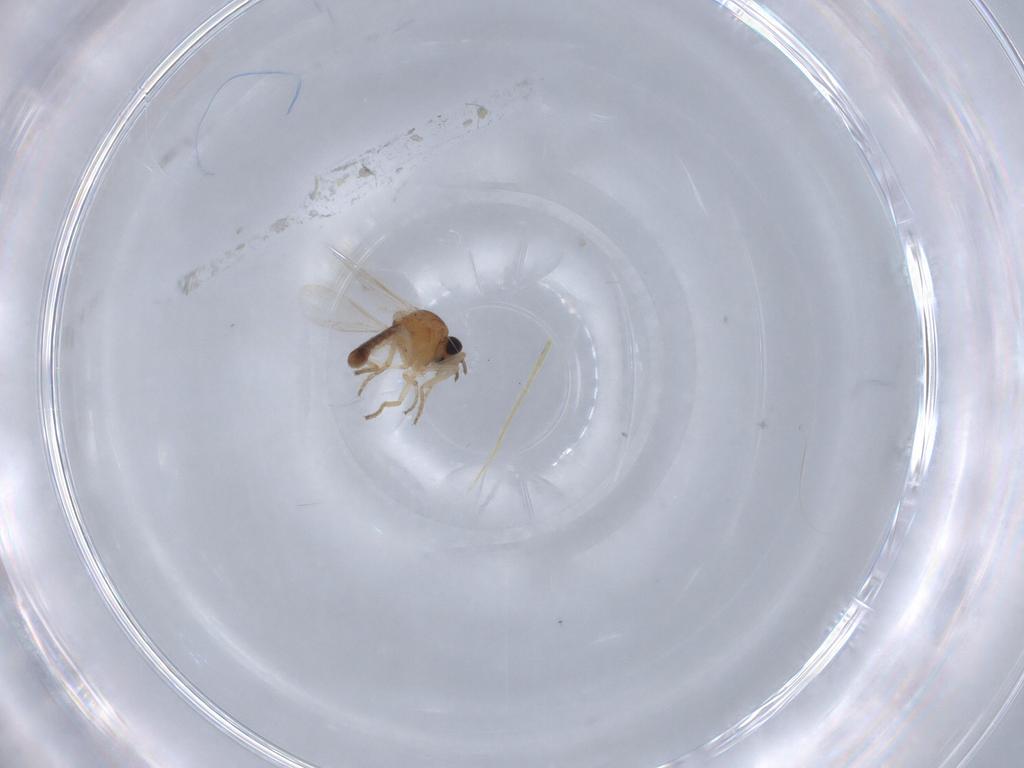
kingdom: Animalia
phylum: Arthropoda
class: Insecta
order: Diptera
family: Ceratopogonidae
